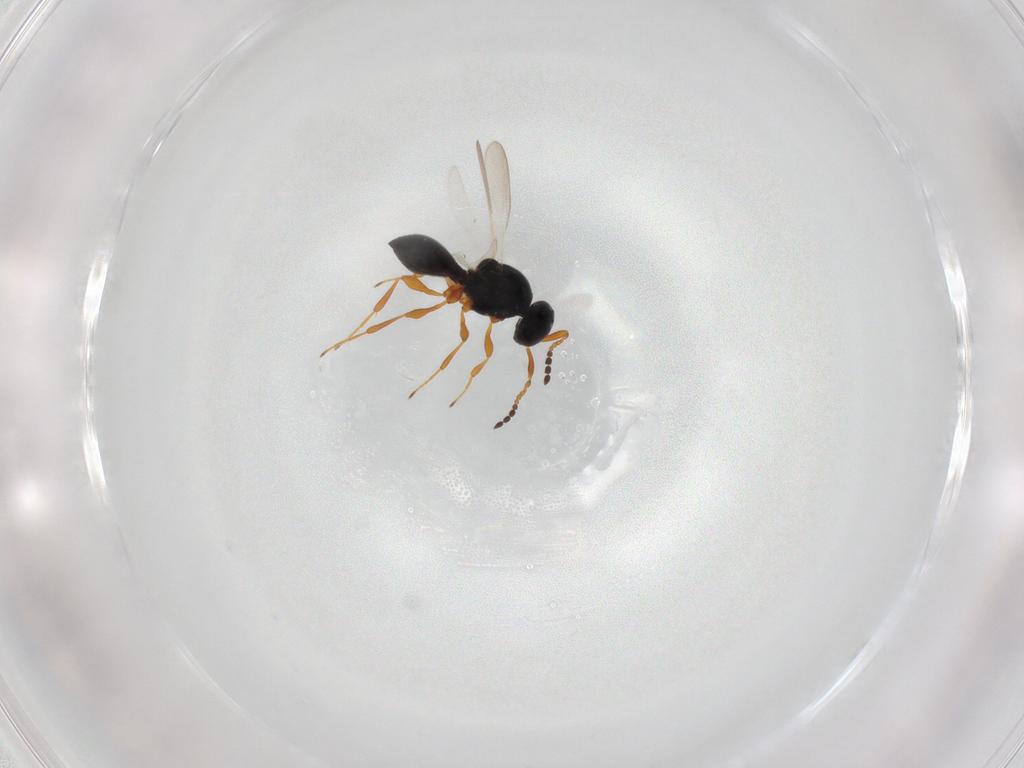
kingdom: Animalia
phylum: Arthropoda
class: Insecta
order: Hymenoptera
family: Platygastridae
